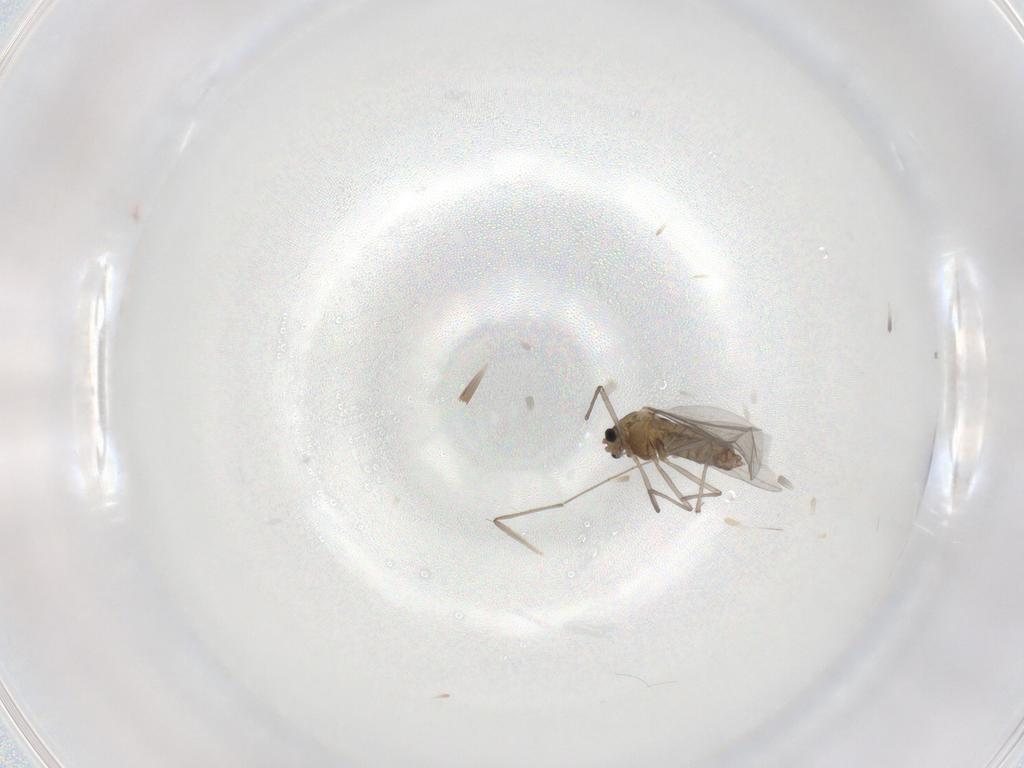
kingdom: Animalia
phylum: Arthropoda
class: Insecta
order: Diptera
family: Chironomidae
